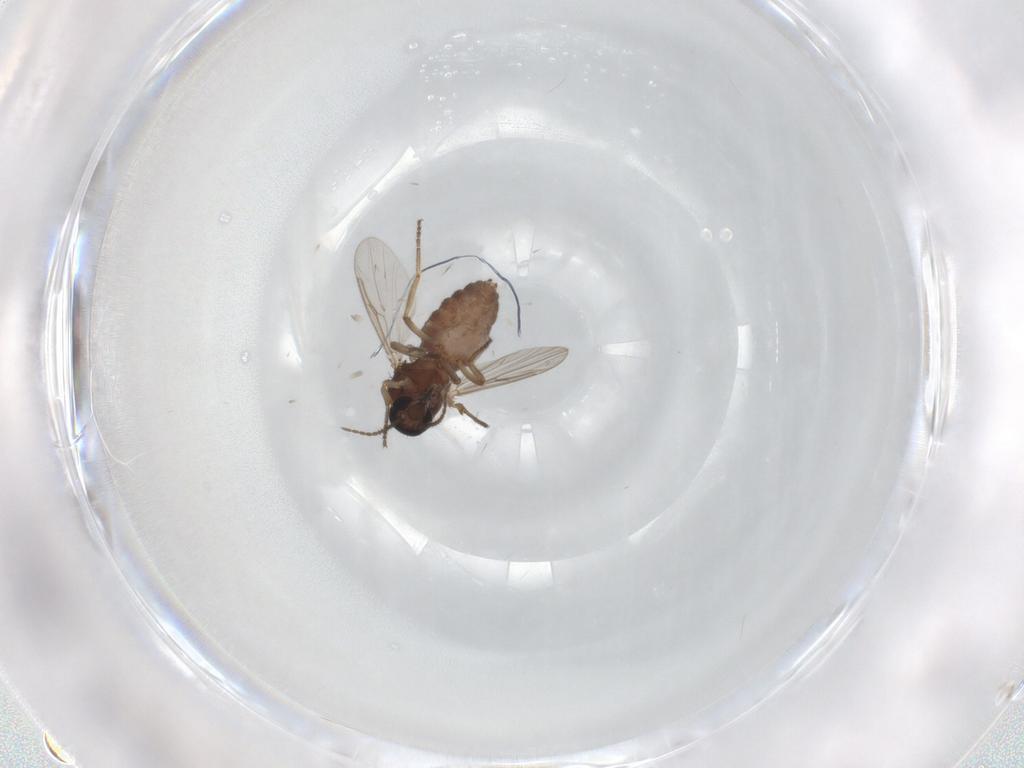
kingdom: Animalia
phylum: Arthropoda
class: Insecta
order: Diptera
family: Ceratopogonidae
